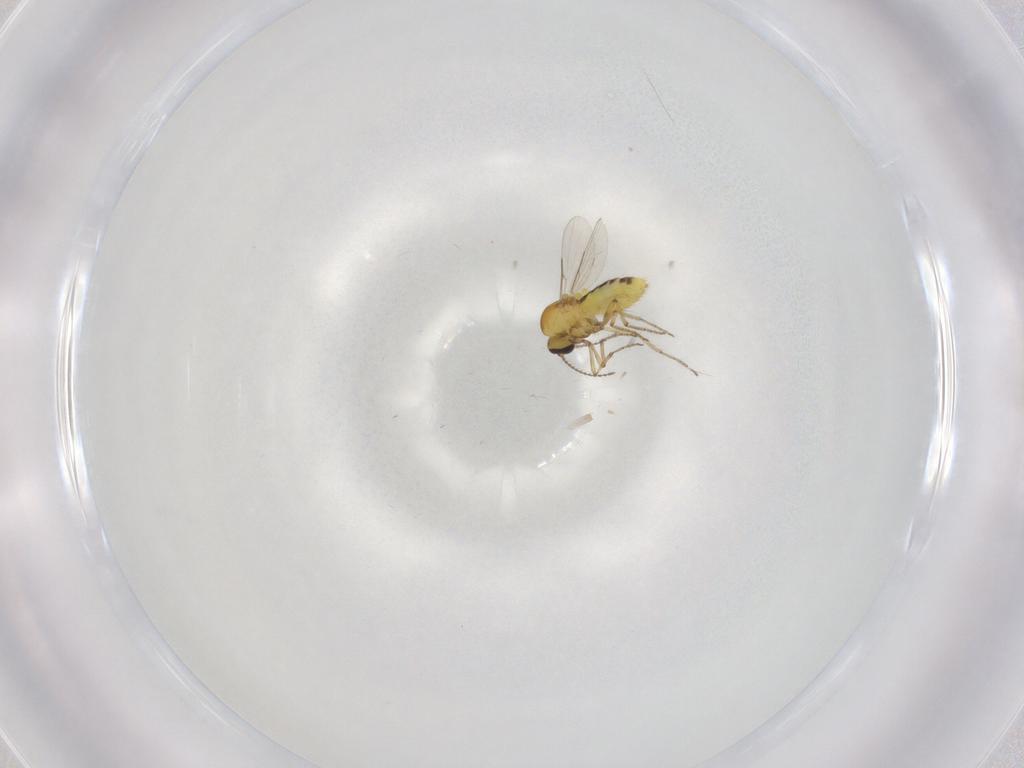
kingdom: Animalia
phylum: Arthropoda
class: Insecta
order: Diptera
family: Ceratopogonidae
